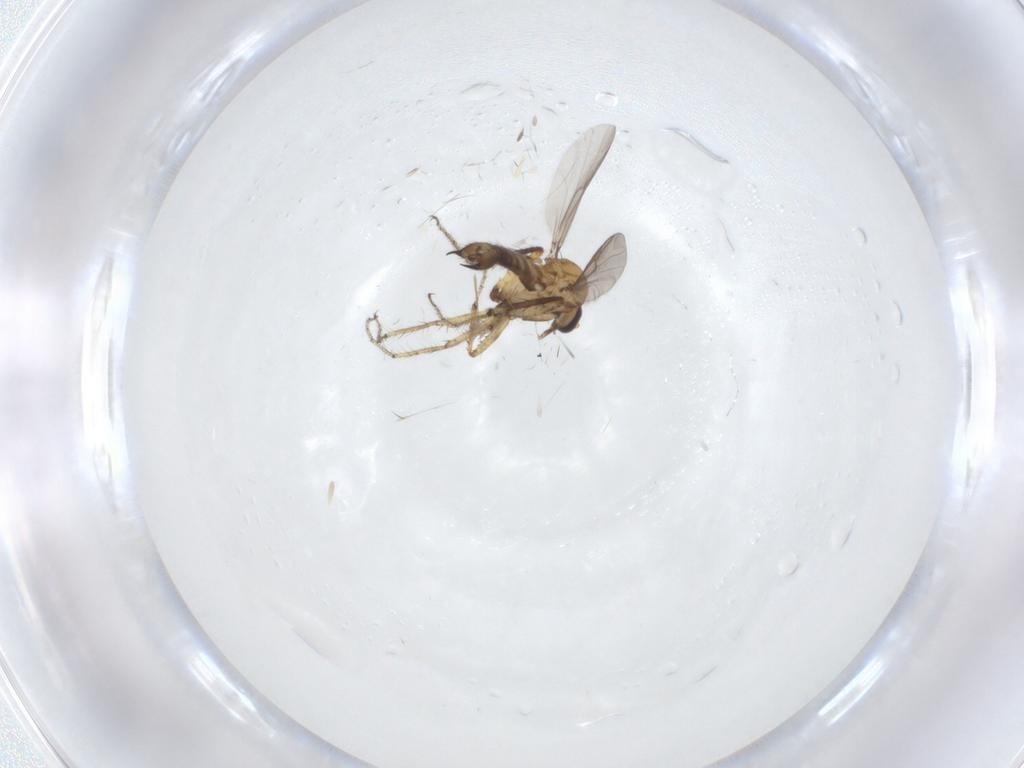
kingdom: Animalia
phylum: Arthropoda
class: Insecta
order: Diptera
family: Ceratopogonidae
